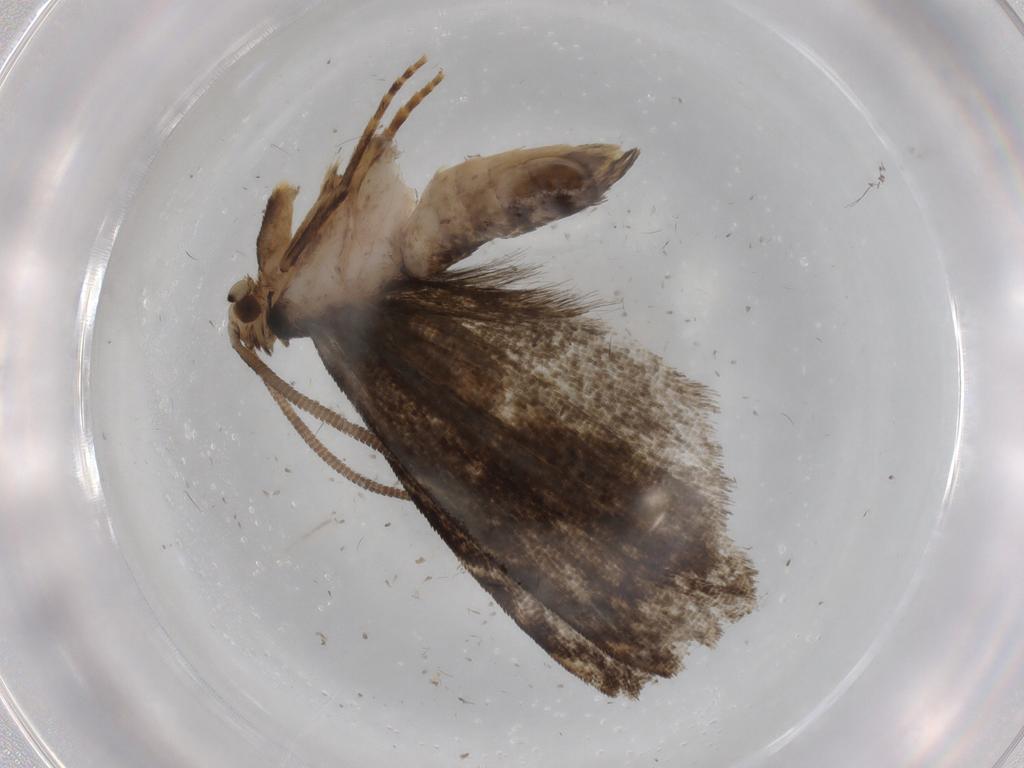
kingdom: Animalia
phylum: Arthropoda
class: Insecta
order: Lepidoptera
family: Dryadaulidae
